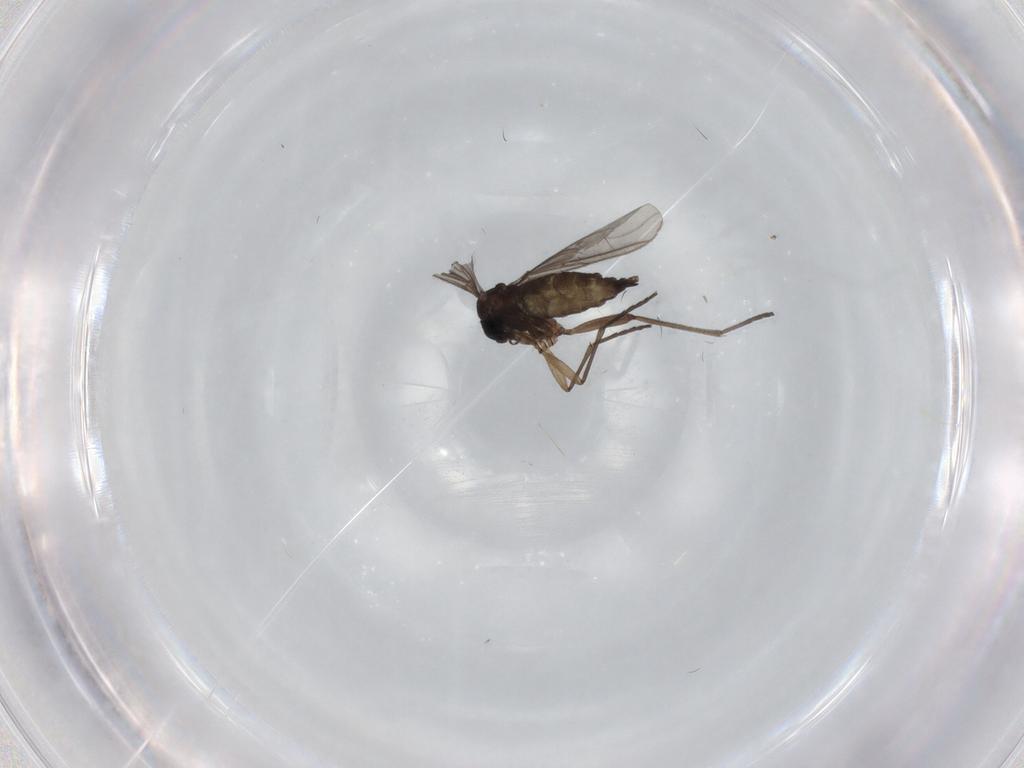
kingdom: Animalia
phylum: Arthropoda
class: Insecta
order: Diptera
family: Sciaridae
